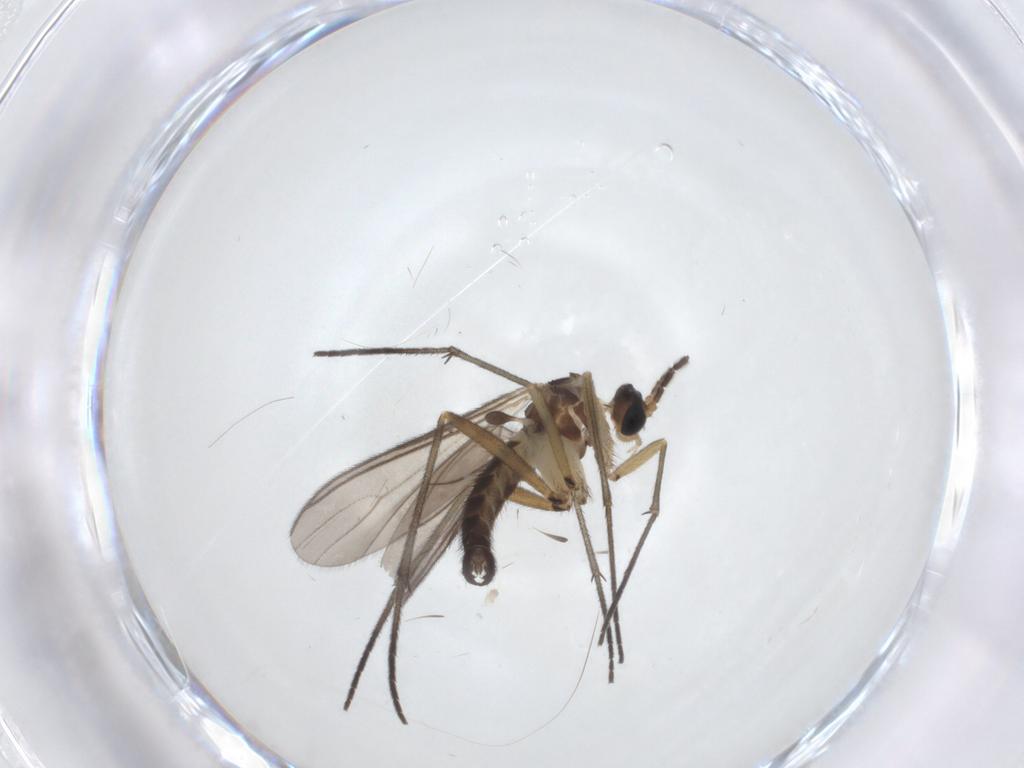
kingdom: Animalia
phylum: Arthropoda
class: Insecta
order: Diptera
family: Sciaridae
